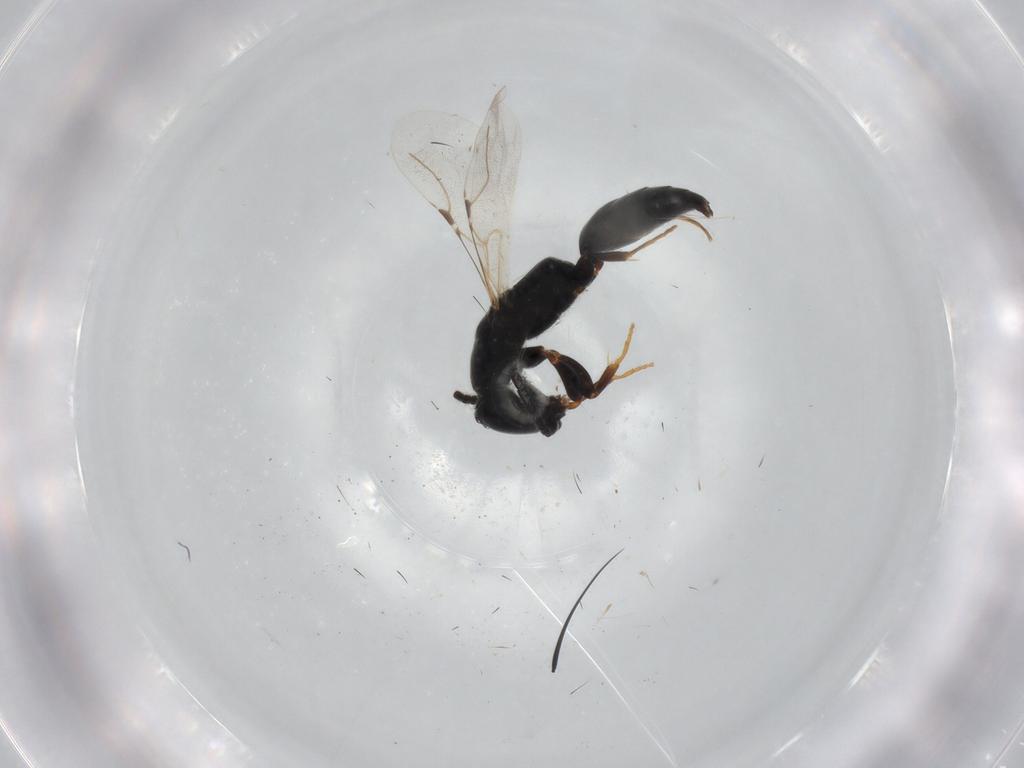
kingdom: Animalia
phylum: Arthropoda
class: Insecta
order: Hymenoptera
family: Bethylidae
